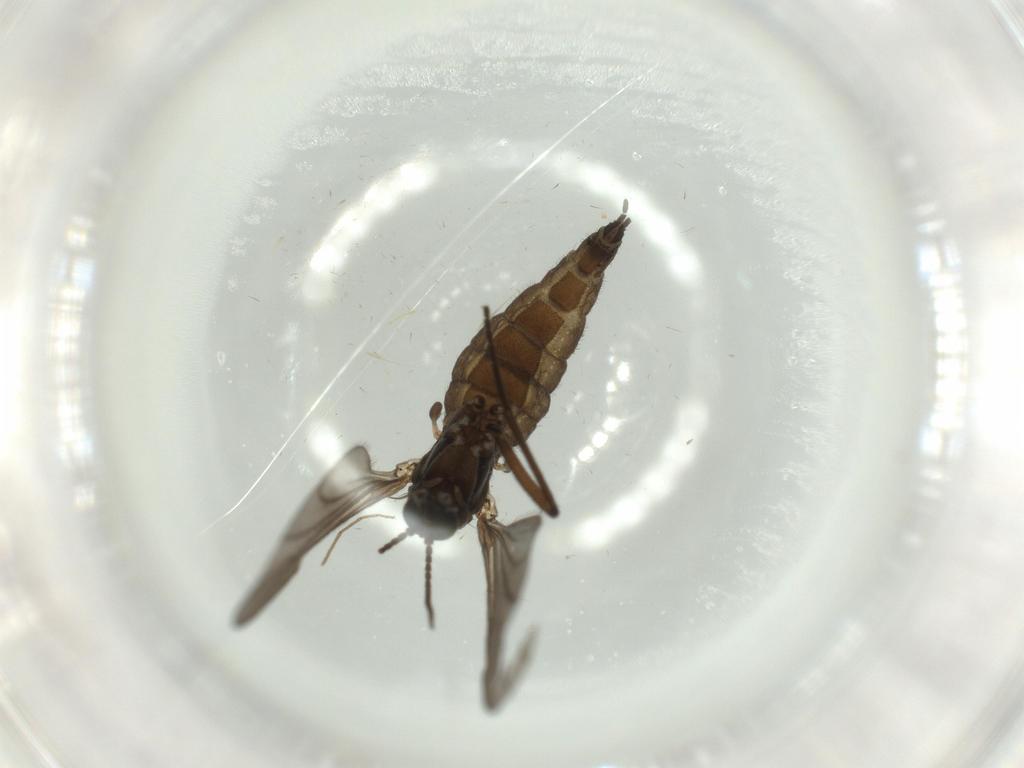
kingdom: Animalia
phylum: Arthropoda
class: Insecta
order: Diptera
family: Sciaridae
